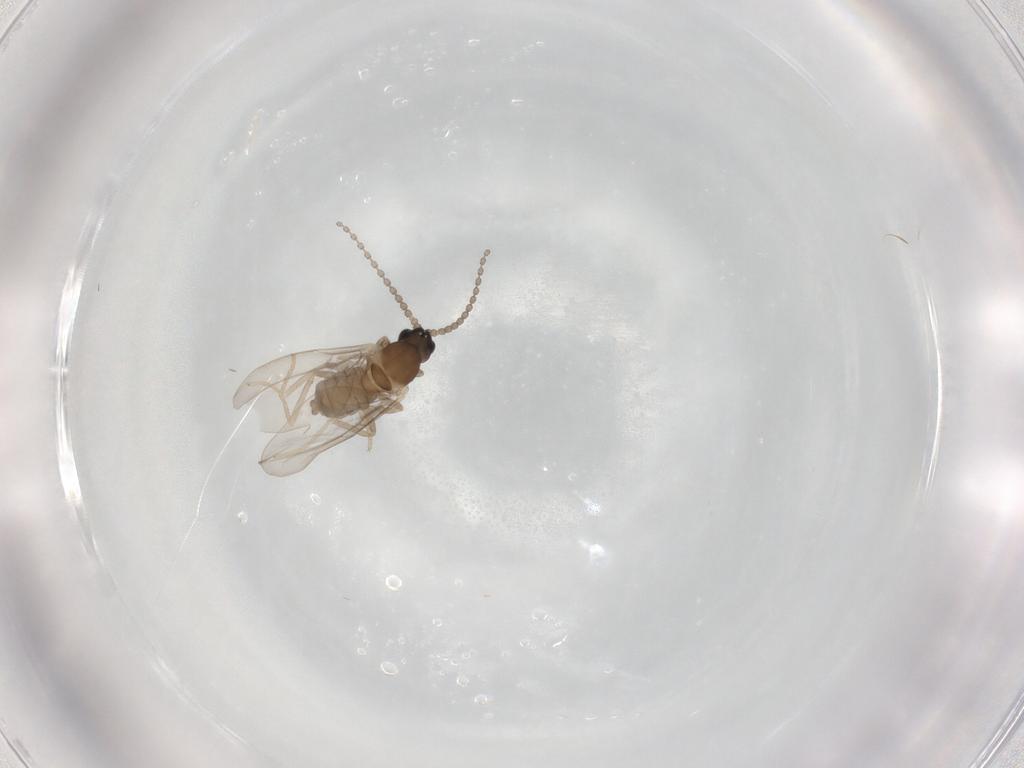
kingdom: Animalia
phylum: Arthropoda
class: Insecta
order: Diptera
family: Cecidomyiidae
